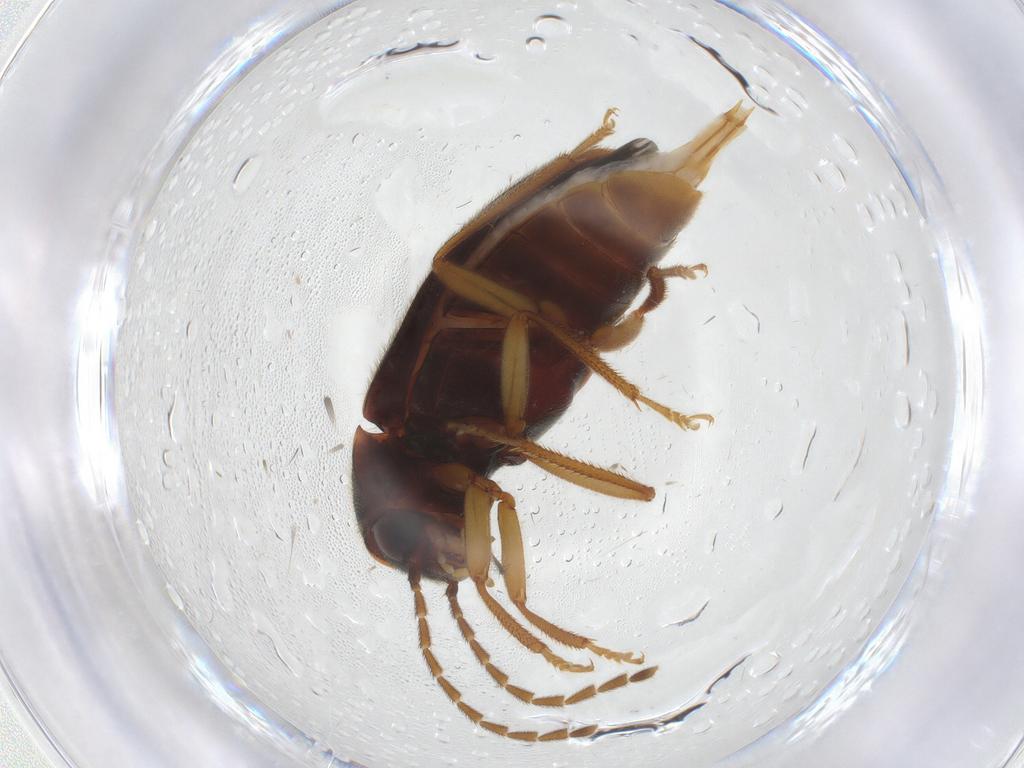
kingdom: Animalia
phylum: Arthropoda
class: Insecta
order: Coleoptera
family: Ptilodactylidae
